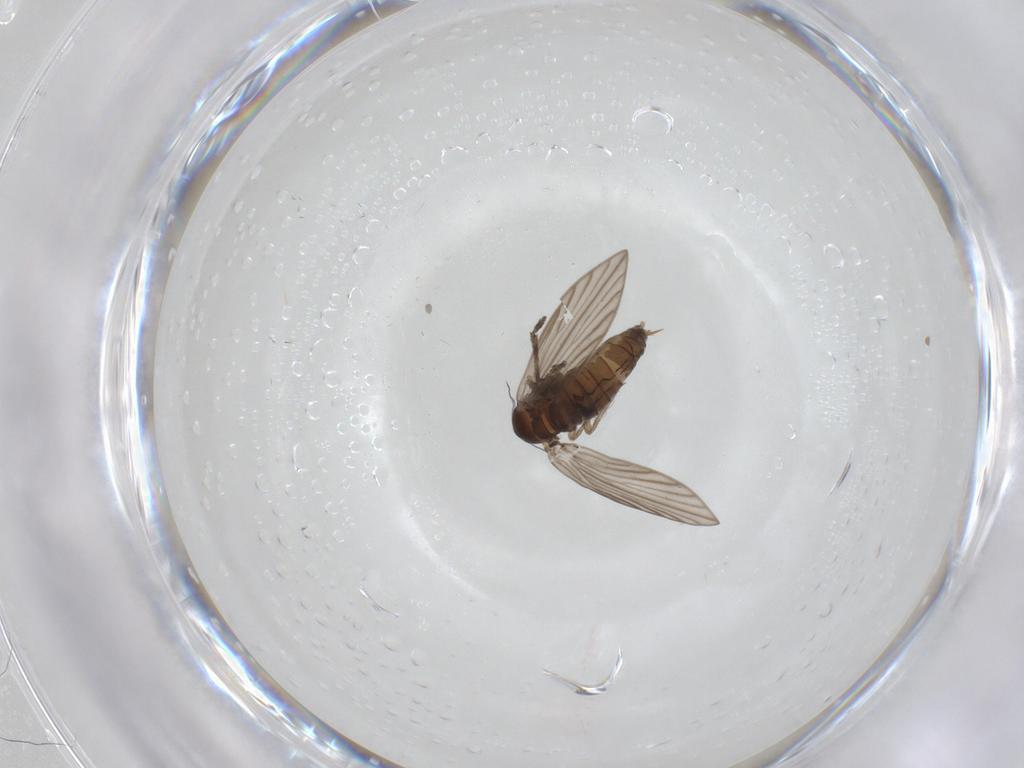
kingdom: Animalia
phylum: Arthropoda
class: Insecta
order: Diptera
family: Psychodidae
